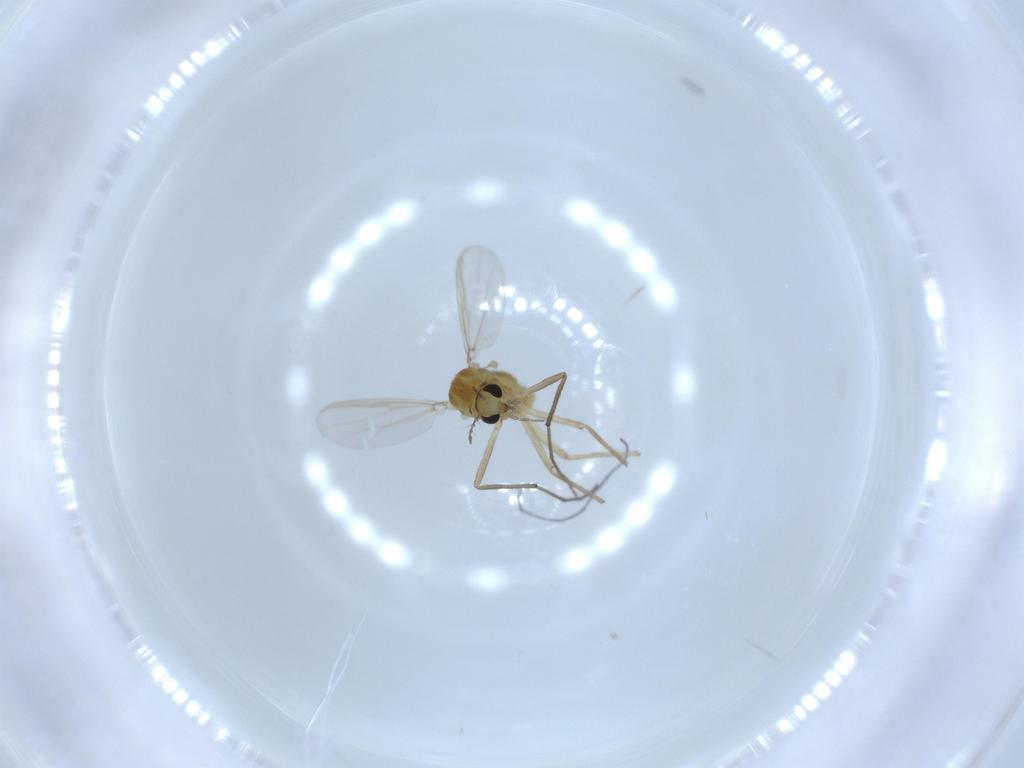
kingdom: Animalia
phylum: Arthropoda
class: Insecta
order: Diptera
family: Chironomidae
